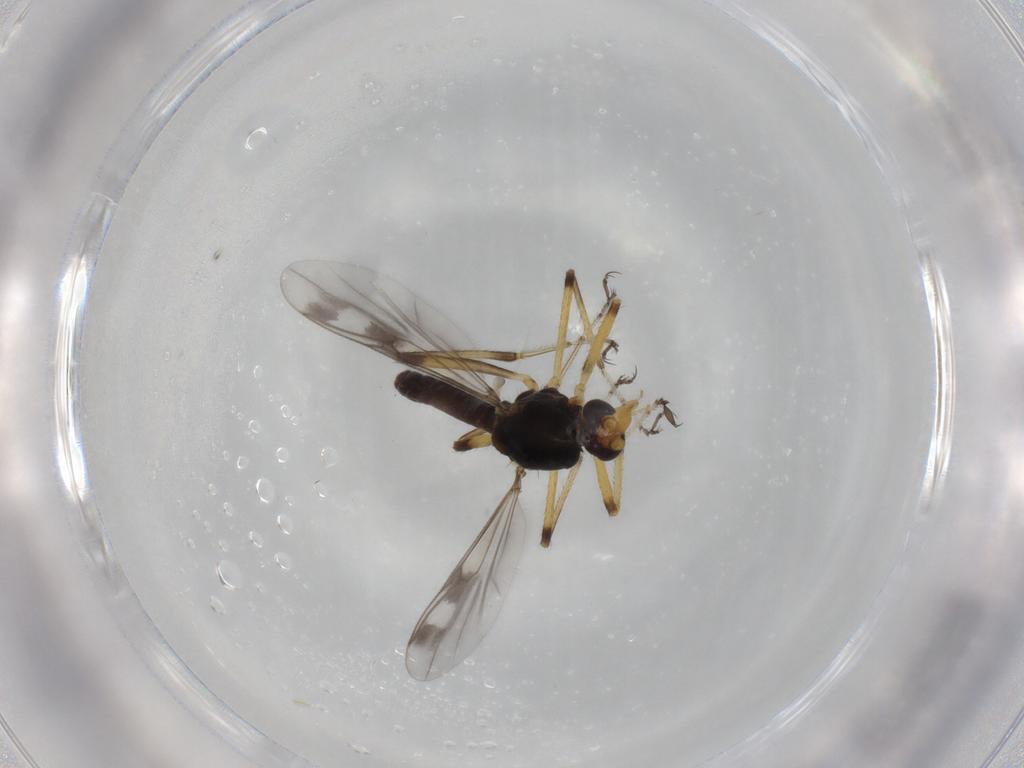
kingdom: Animalia
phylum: Arthropoda
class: Insecta
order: Diptera
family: Ceratopogonidae
